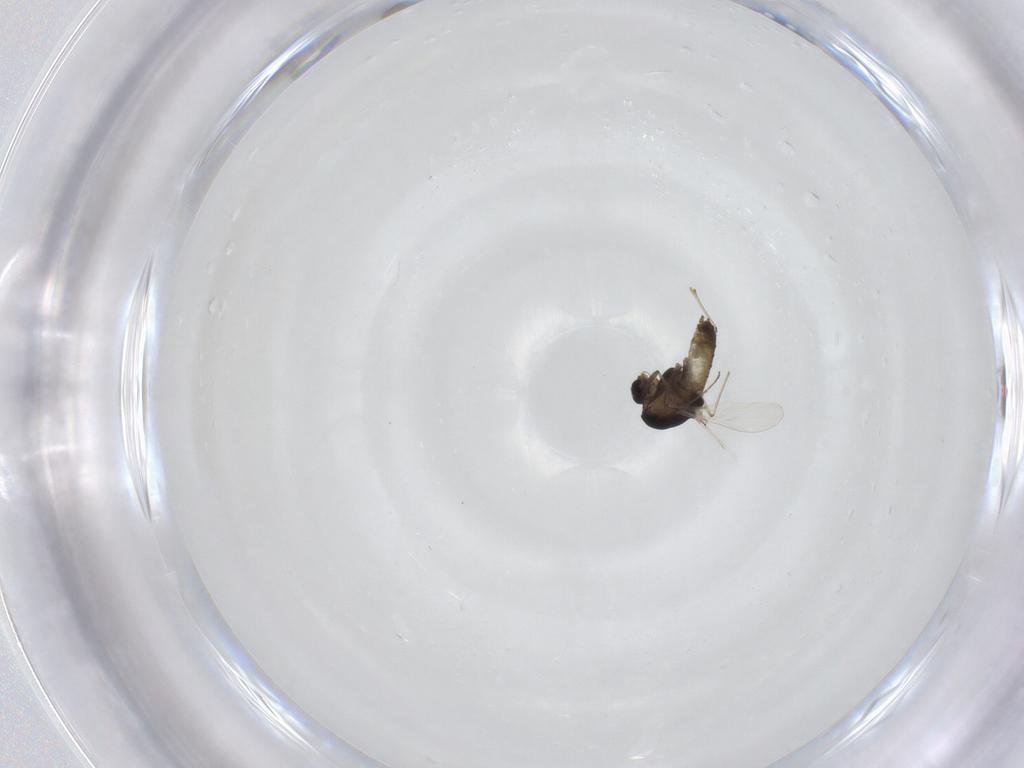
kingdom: Animalia
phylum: Arthropoda
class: Insecta
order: Diptera
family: Chironomidae
